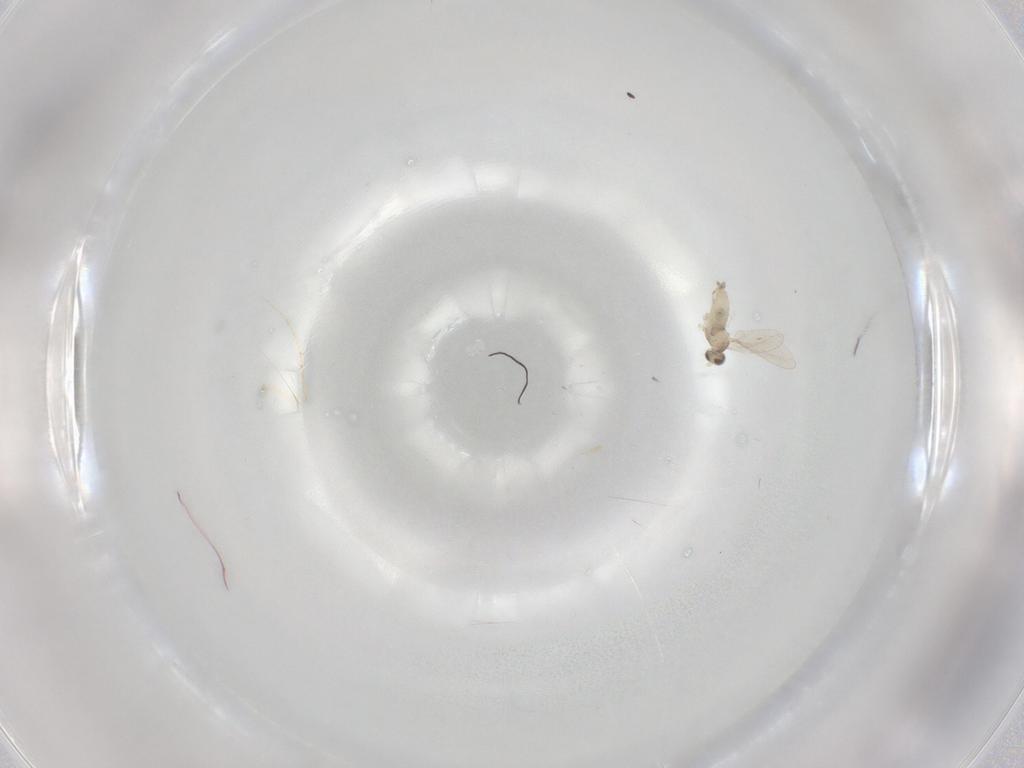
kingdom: Animalia
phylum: Arthropoda
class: Insecta
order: Diptera
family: Cecidomyiidae
